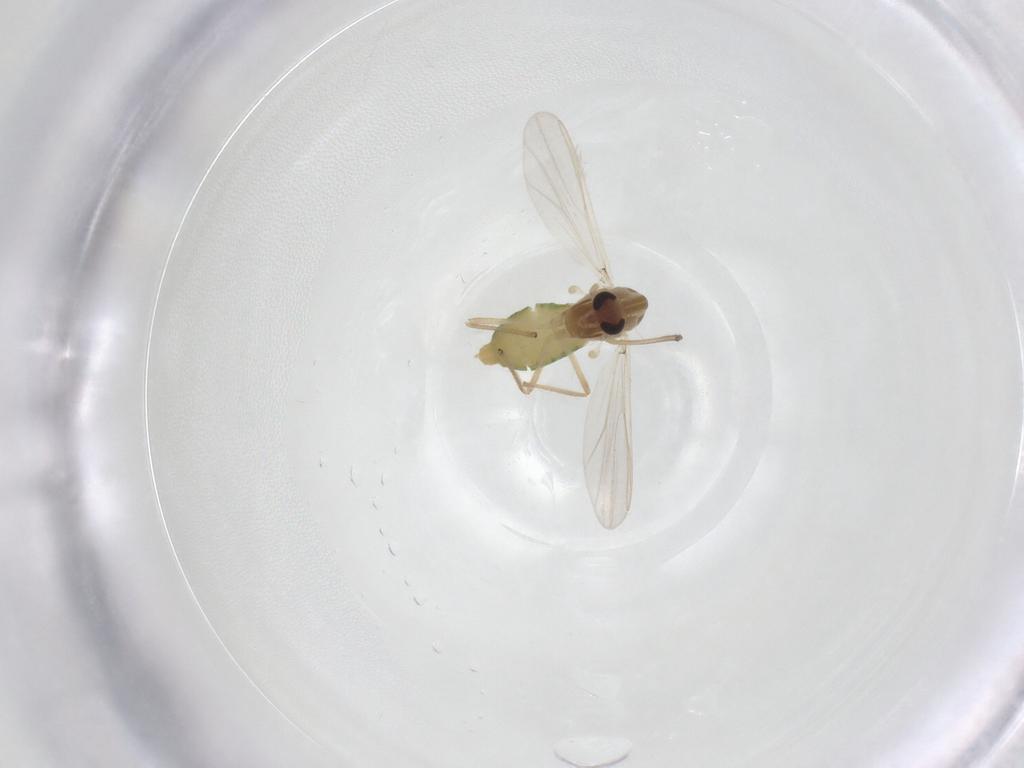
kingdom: Animalia
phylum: Arthropoda
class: Insecta
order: Diptera
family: Chironomidae
